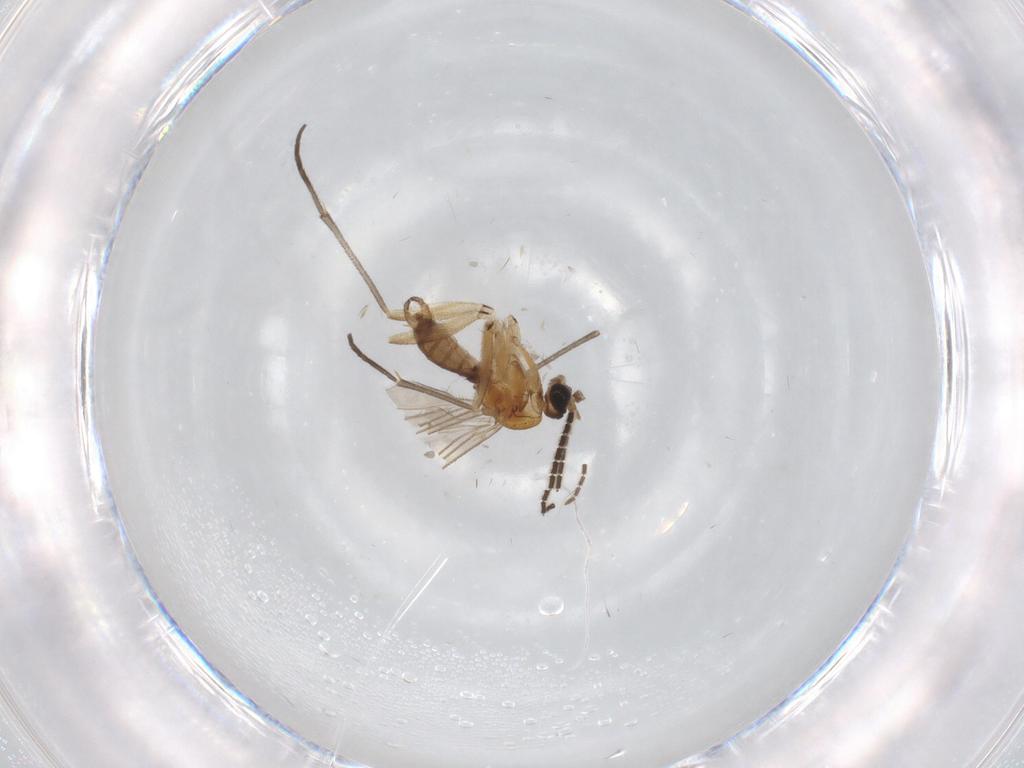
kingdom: Animalia
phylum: Arthropoda
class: Insecta
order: Diptera
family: Sciaridae
